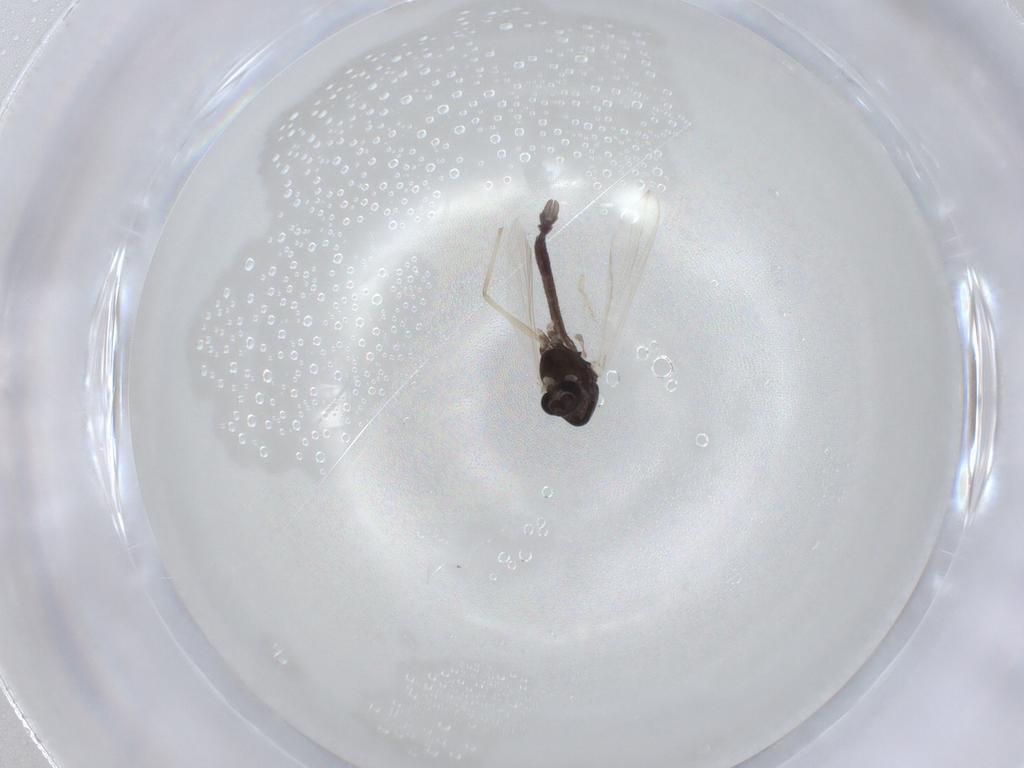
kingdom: Animalia
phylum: Arthropoda
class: Insecta
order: Diptera
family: Chironomidae
